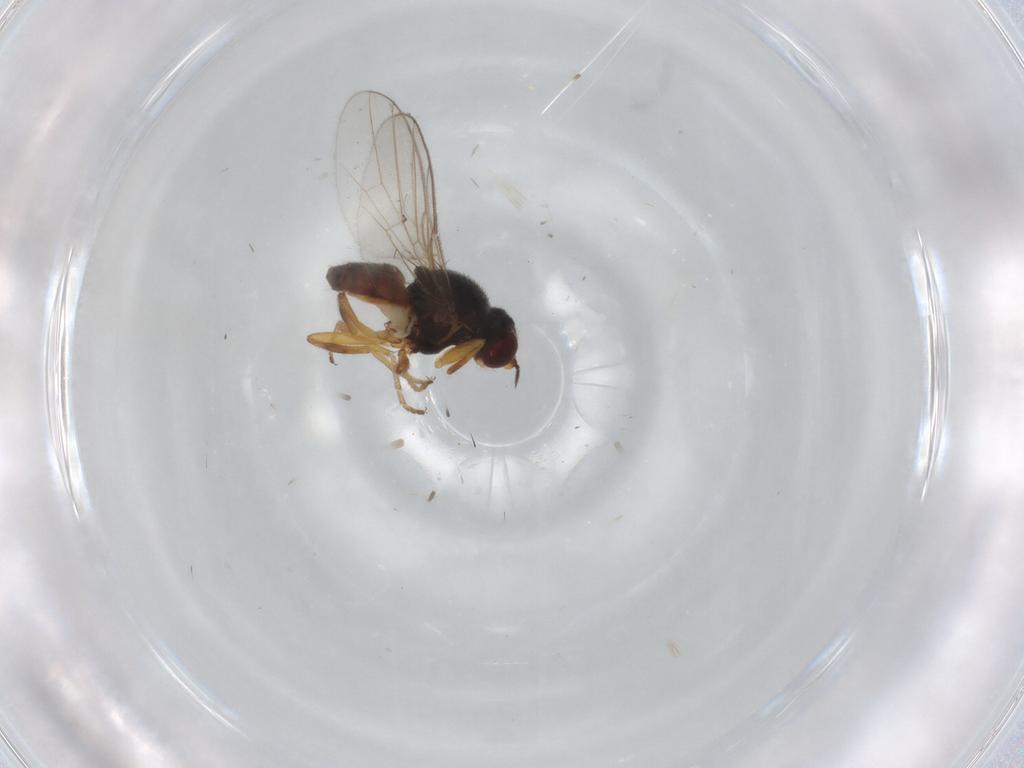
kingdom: Animalia
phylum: Arthropoda
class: Insecta
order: Diptera
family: Chloropidae
